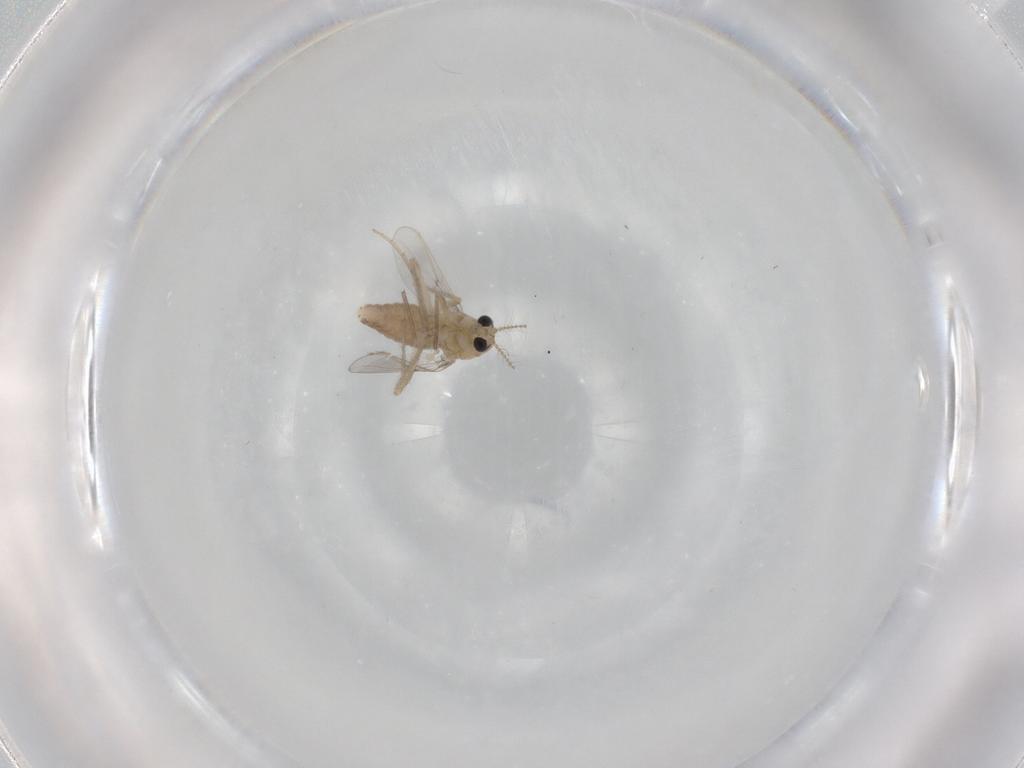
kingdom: Animalia
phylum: Arthropoda
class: Insecta
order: Diptera
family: Chironomidae
